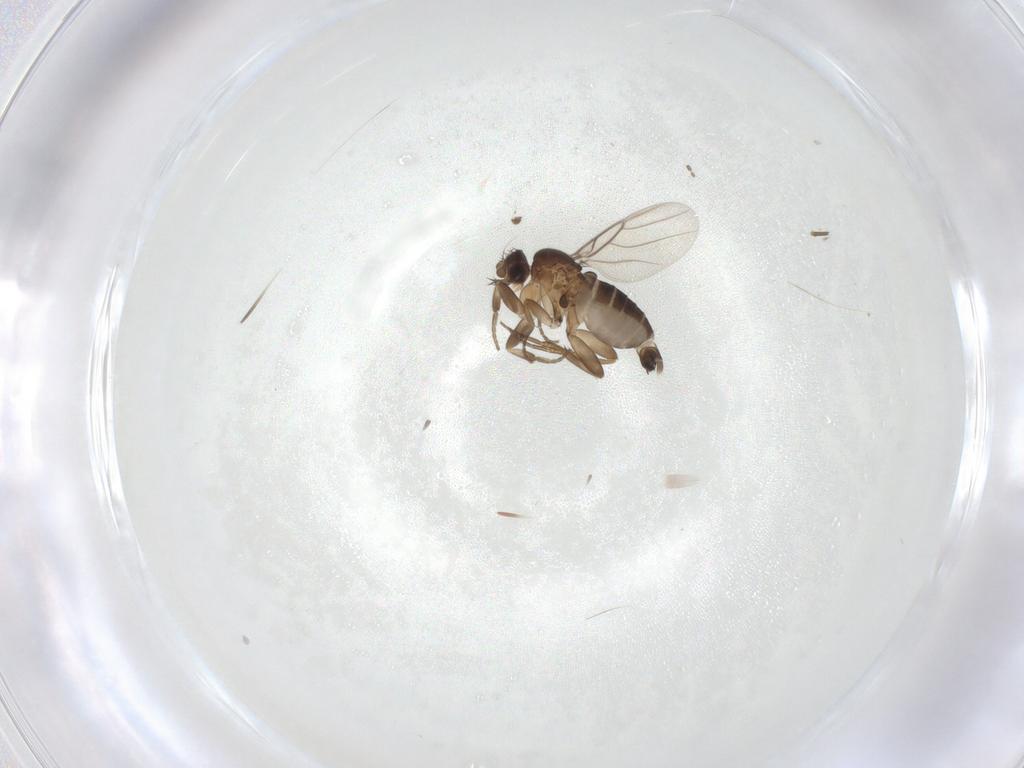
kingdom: Animalia
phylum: Arthropoda
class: Insecta
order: Diptera
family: Phoridae
